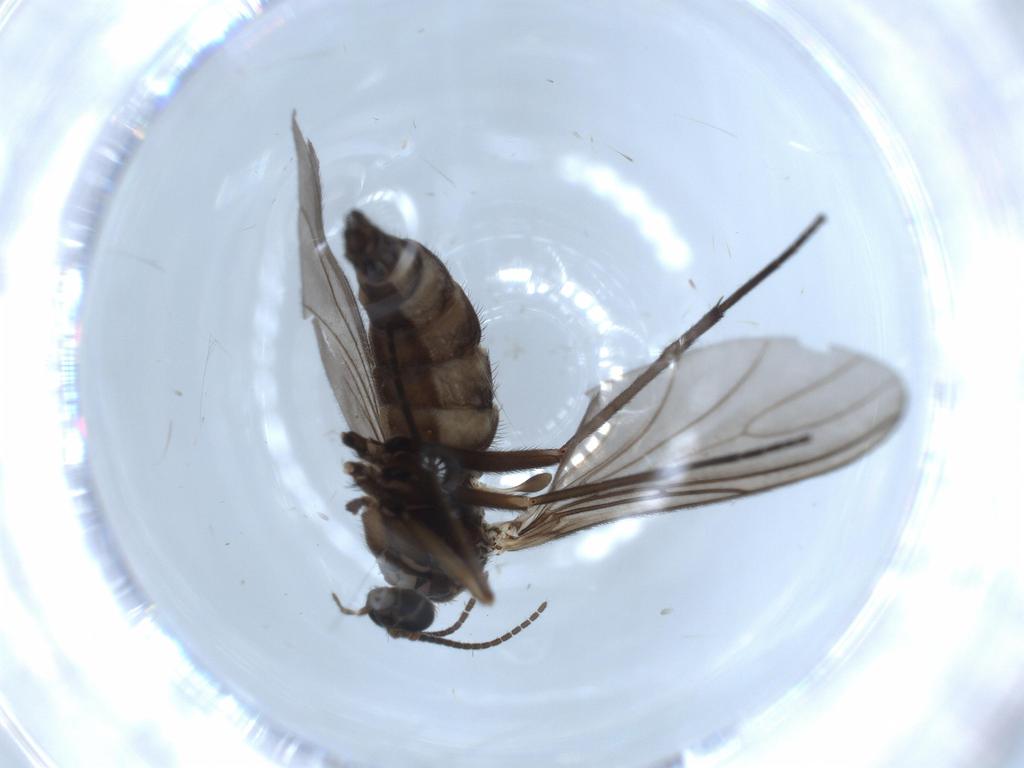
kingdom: Animalia
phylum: Arthropoda
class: Insecta
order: Diptera
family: Sciaridae
